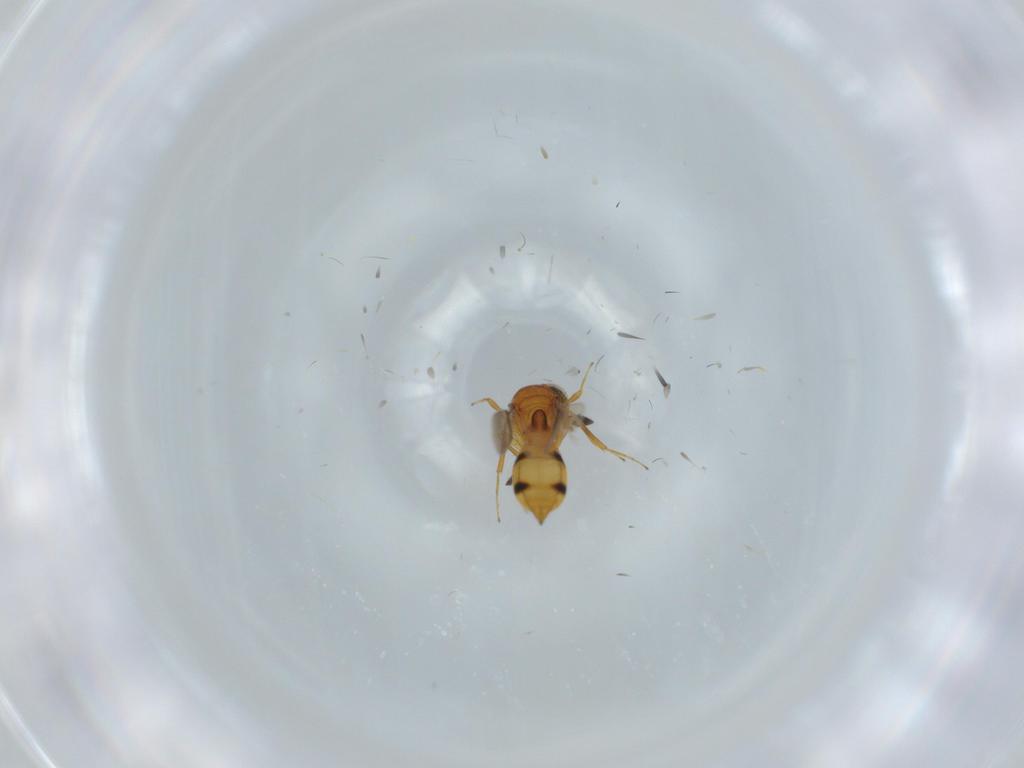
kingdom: Animalia
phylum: Arthropoda
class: Insecta
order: Hymenoptera
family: Scelionidae
